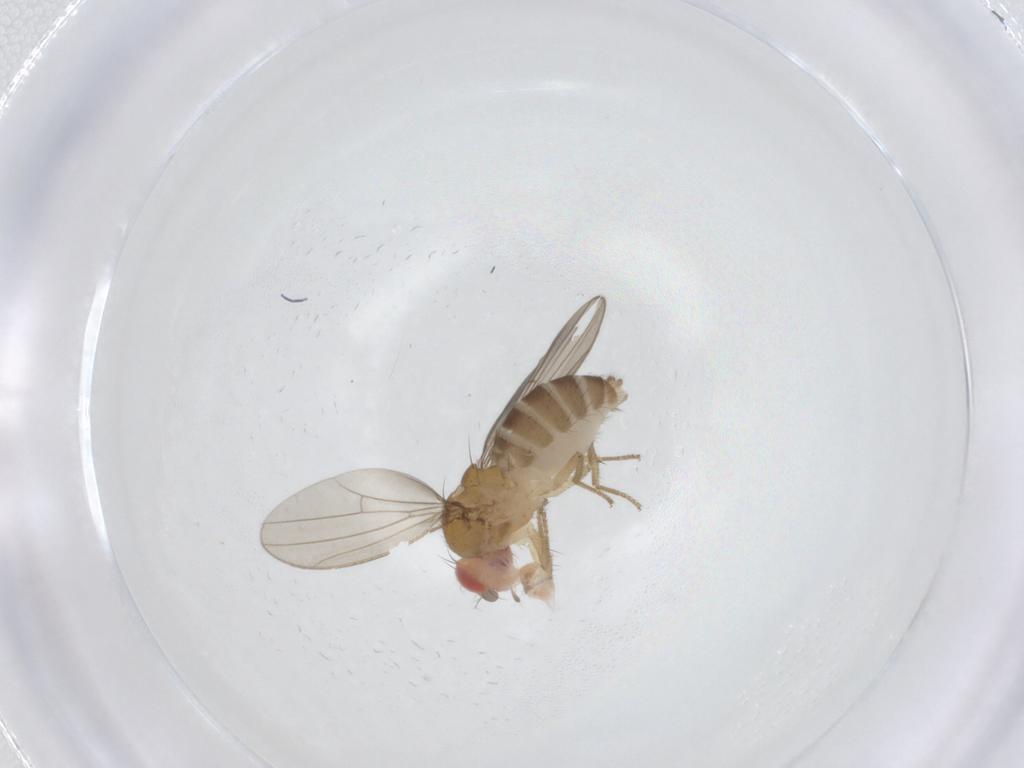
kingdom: Animalia
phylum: Arthropoda
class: Insecta
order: Diptera
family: Drosophilidae
